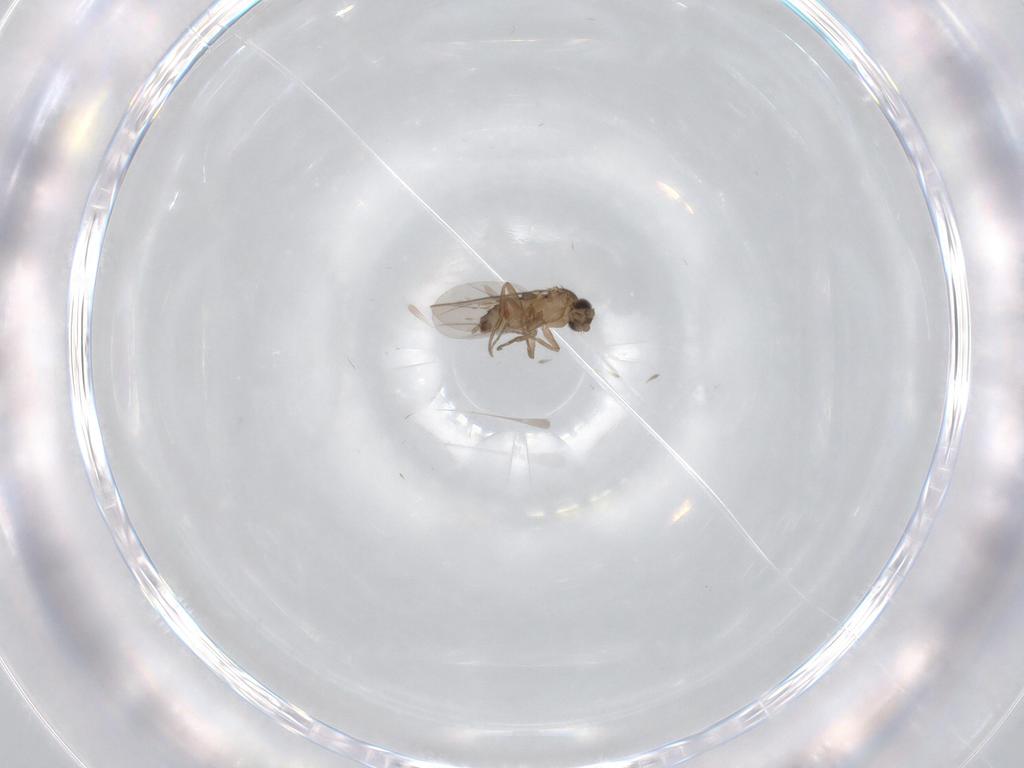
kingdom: Animalia
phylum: Arthropoda
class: Insecta
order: Diptera
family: Phoridae
